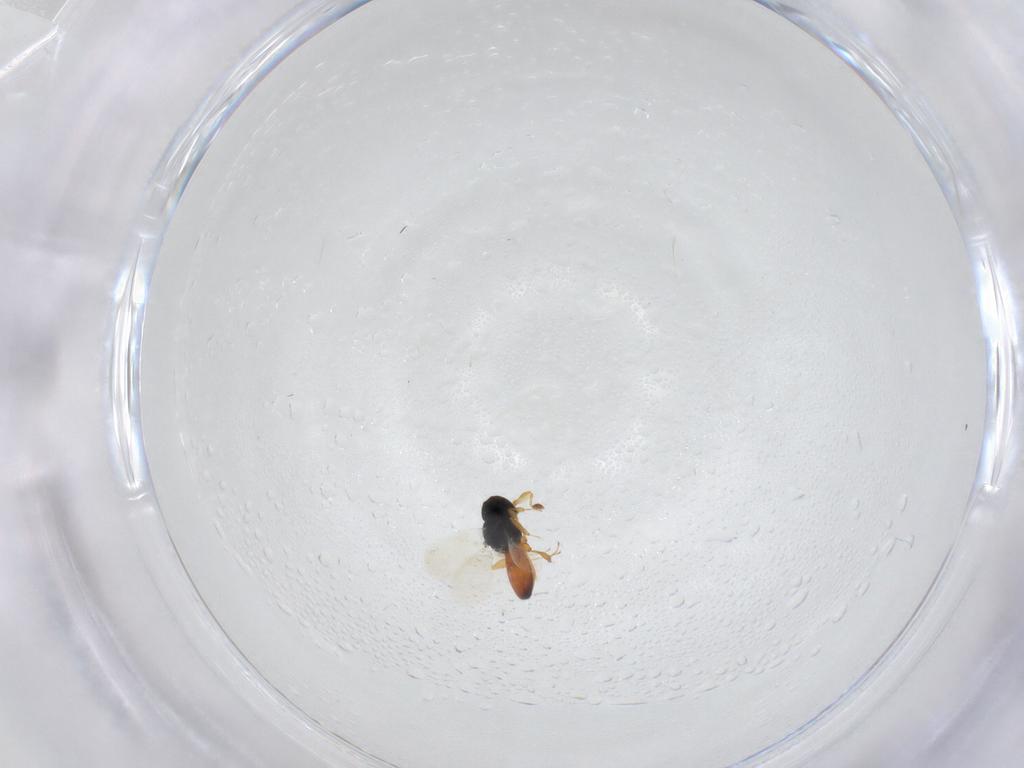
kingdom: Animalia
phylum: Arthropoda
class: Insecta
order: Hymenoptera
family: Platygastridae
